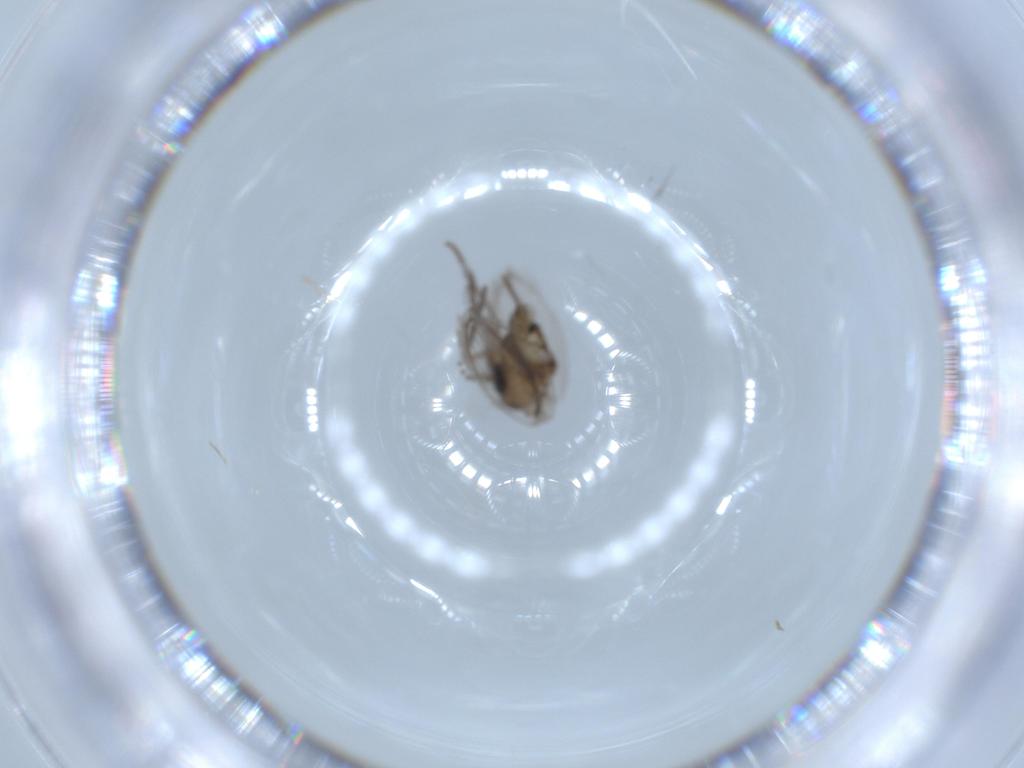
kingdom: Animalia
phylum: Arthropoda
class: Insecta
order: Diptera
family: Psychodidae
